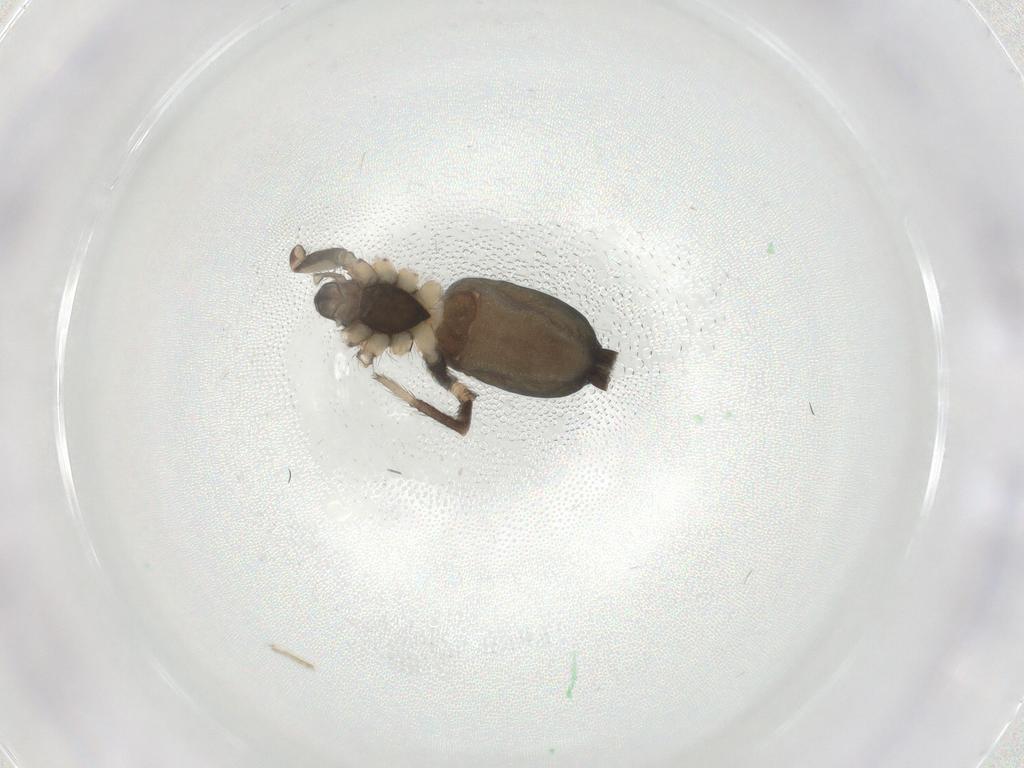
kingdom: Animalia
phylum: Arthropoda
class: Arachnida
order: Araneae
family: Gnaphosidae
